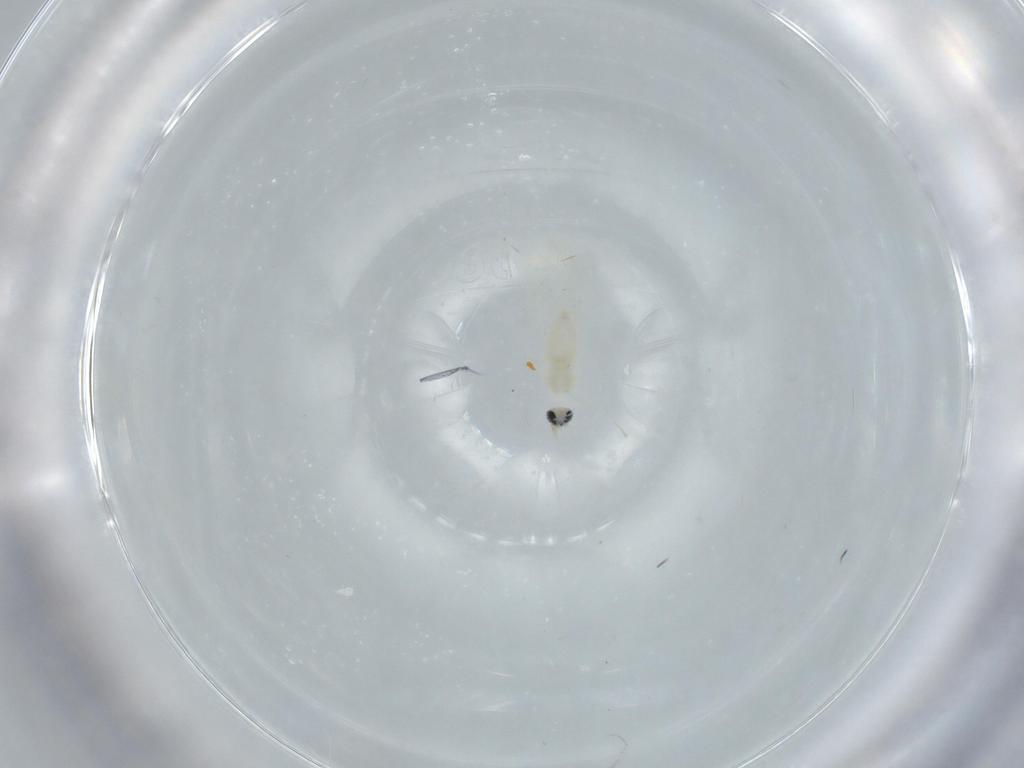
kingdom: Animalia
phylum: Arthropoda
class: Insecta
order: Diptera
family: Cecidomyiidae
